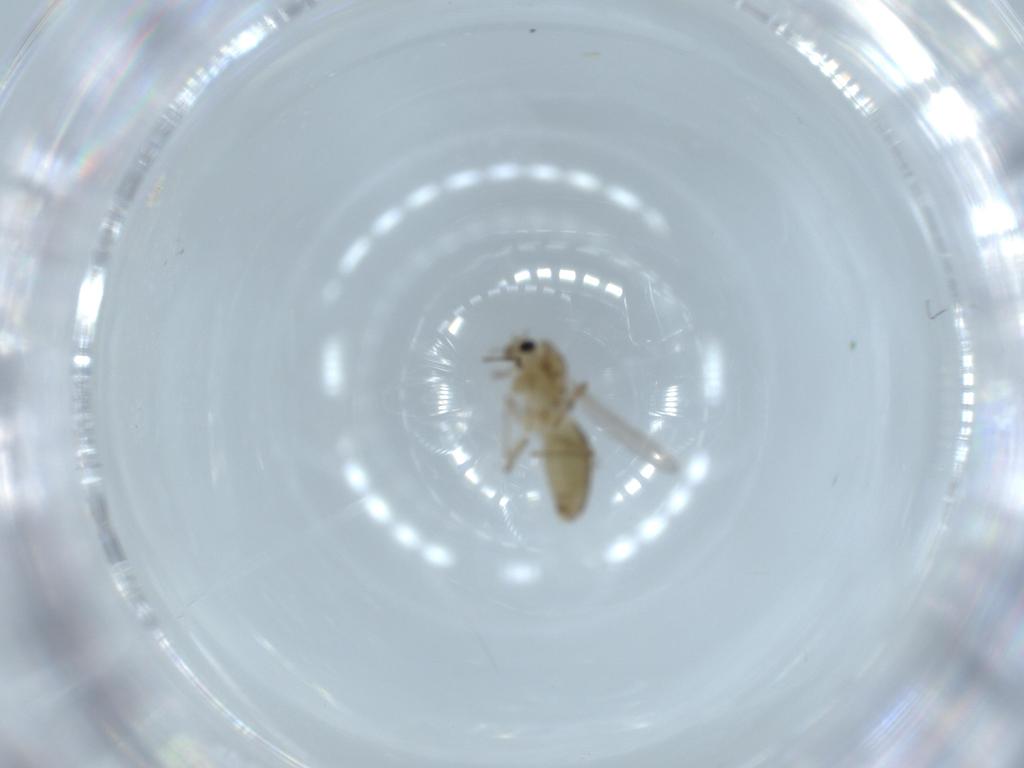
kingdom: Animalia
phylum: Arthropoda
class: Insecta
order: Diptera
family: Chironomidae
